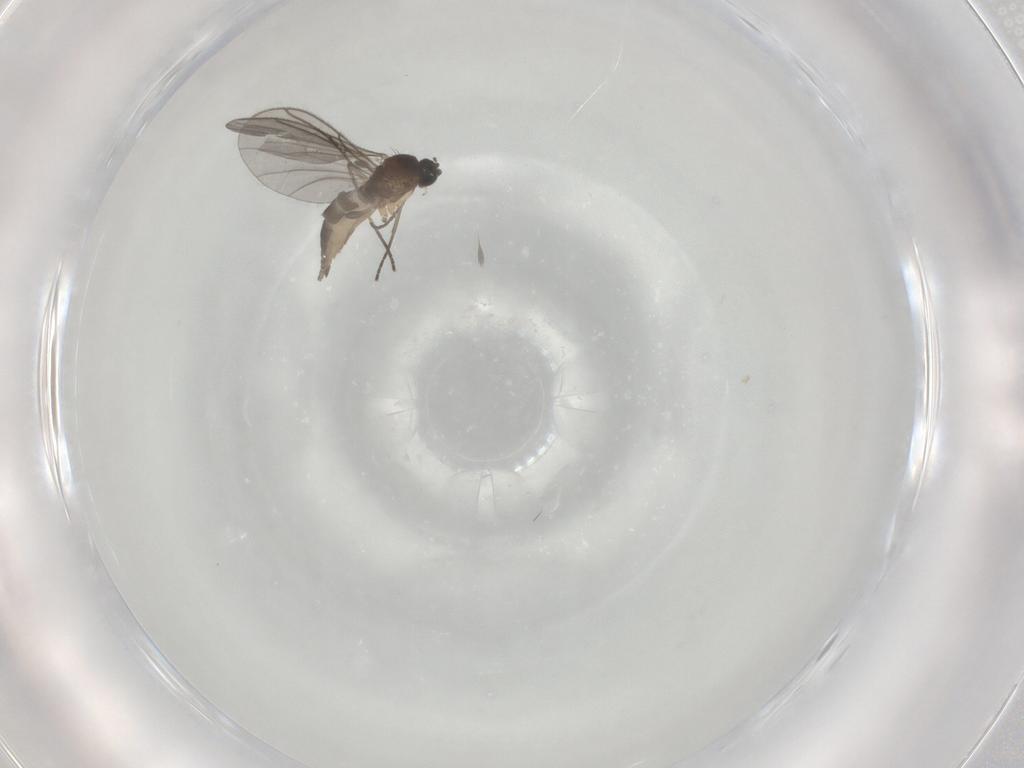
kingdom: Animalia
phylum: Arthropoda
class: Insecta
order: Diptera
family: Sciaridae
